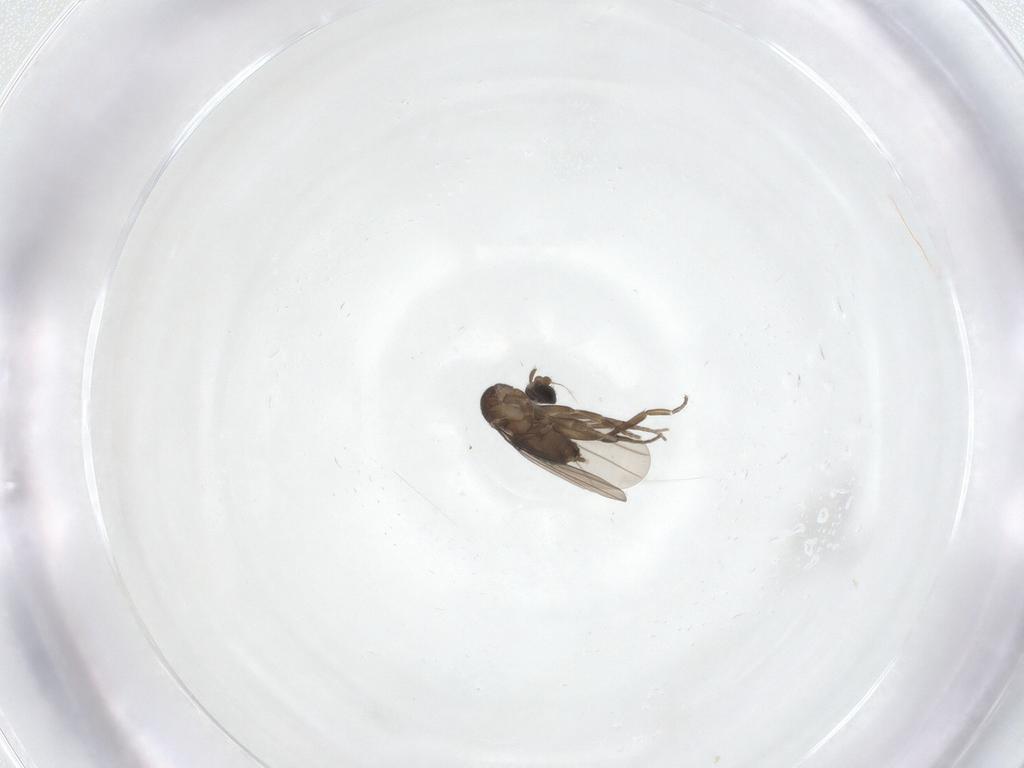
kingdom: Animalia
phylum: Arthropoda
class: Insecta
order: Diptera
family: Phoridae
